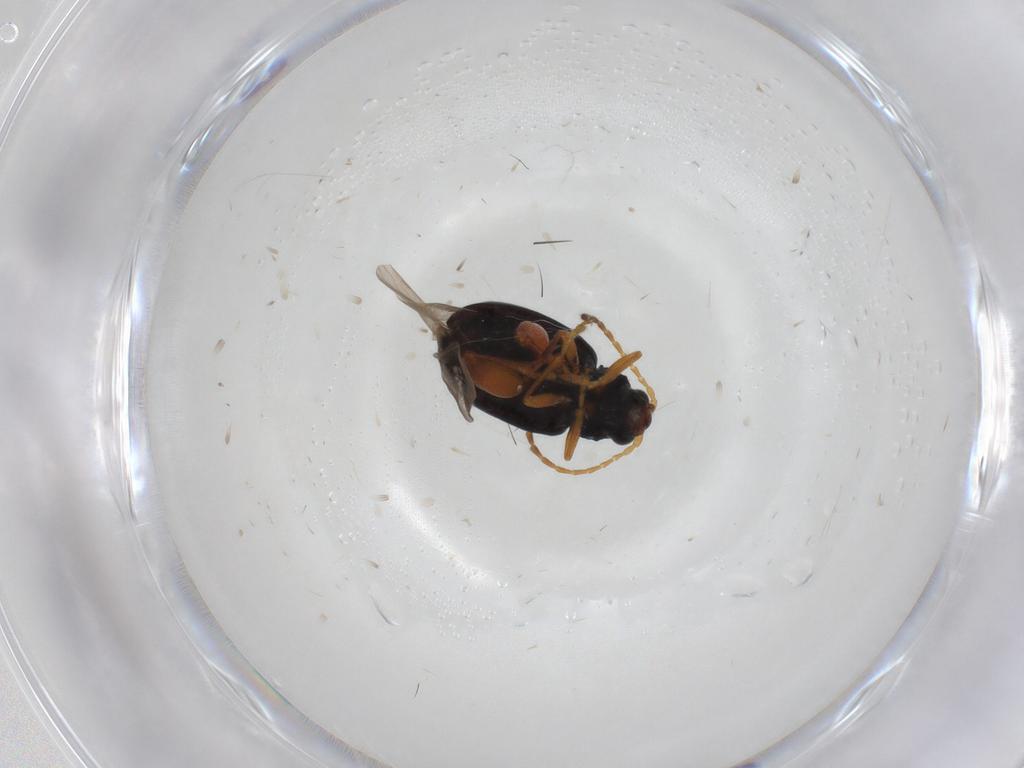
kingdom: Animalia
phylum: Arthropoda
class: Insecta
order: Coleoptera
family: Chrysomelidae
